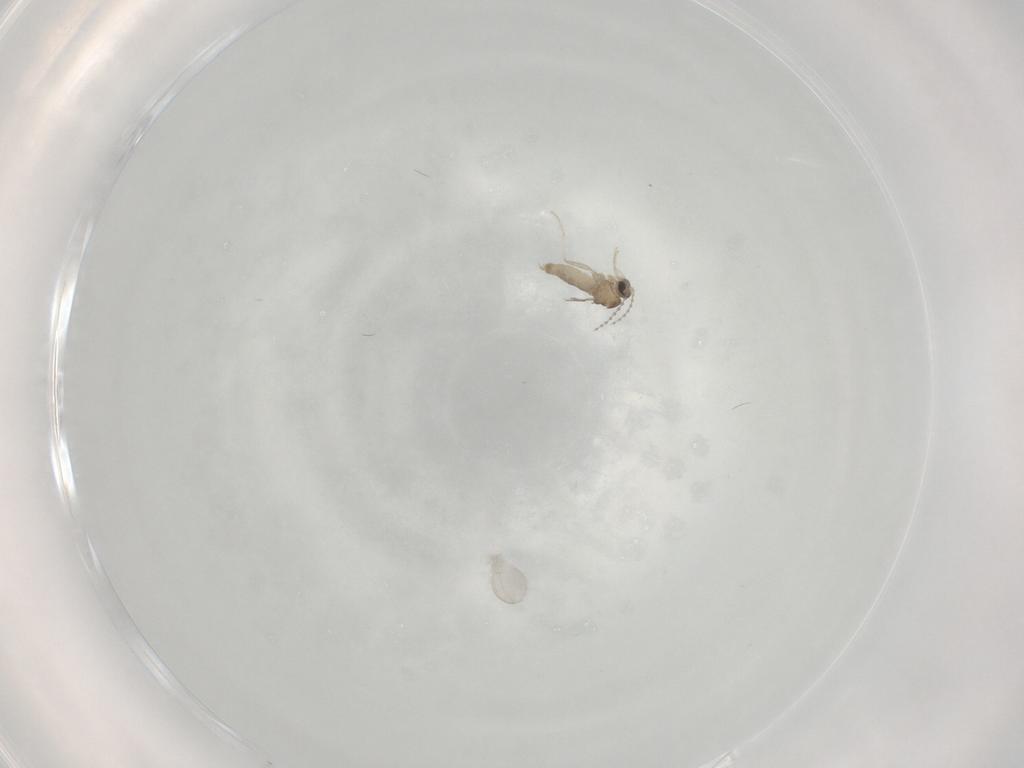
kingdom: Animalia
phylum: Arthropoda
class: Insecta
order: Diptera
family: Cecidomyiidae
